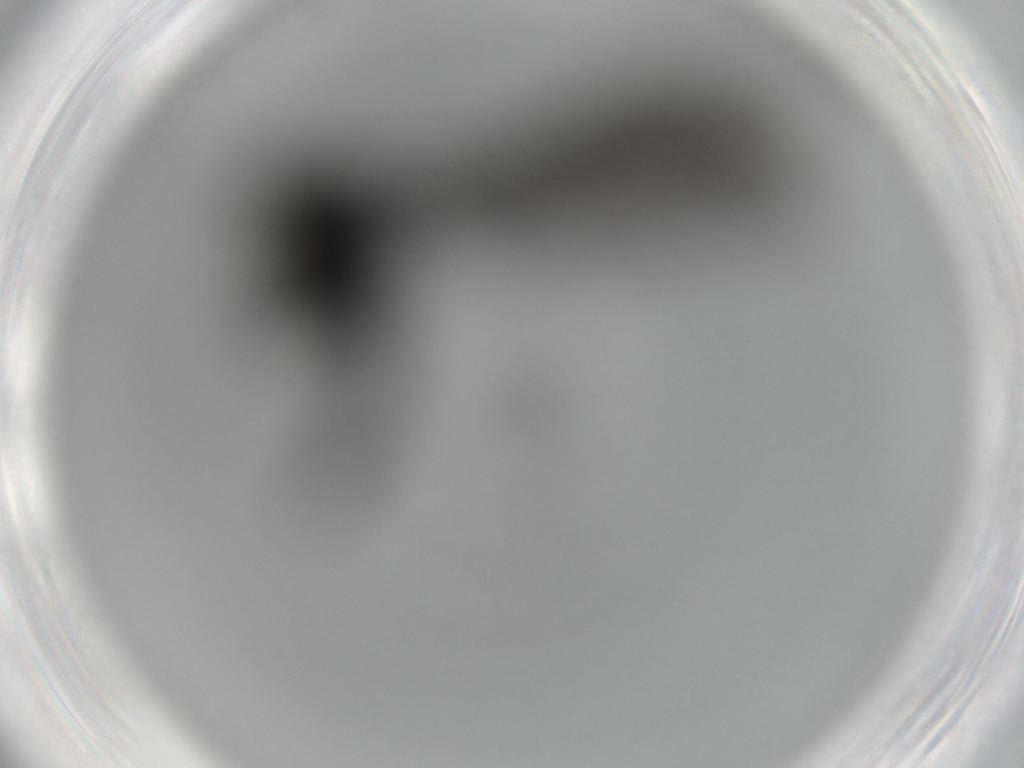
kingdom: Animalia
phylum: Arthropoda
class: Insecta
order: Diptera
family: Sciaridae
